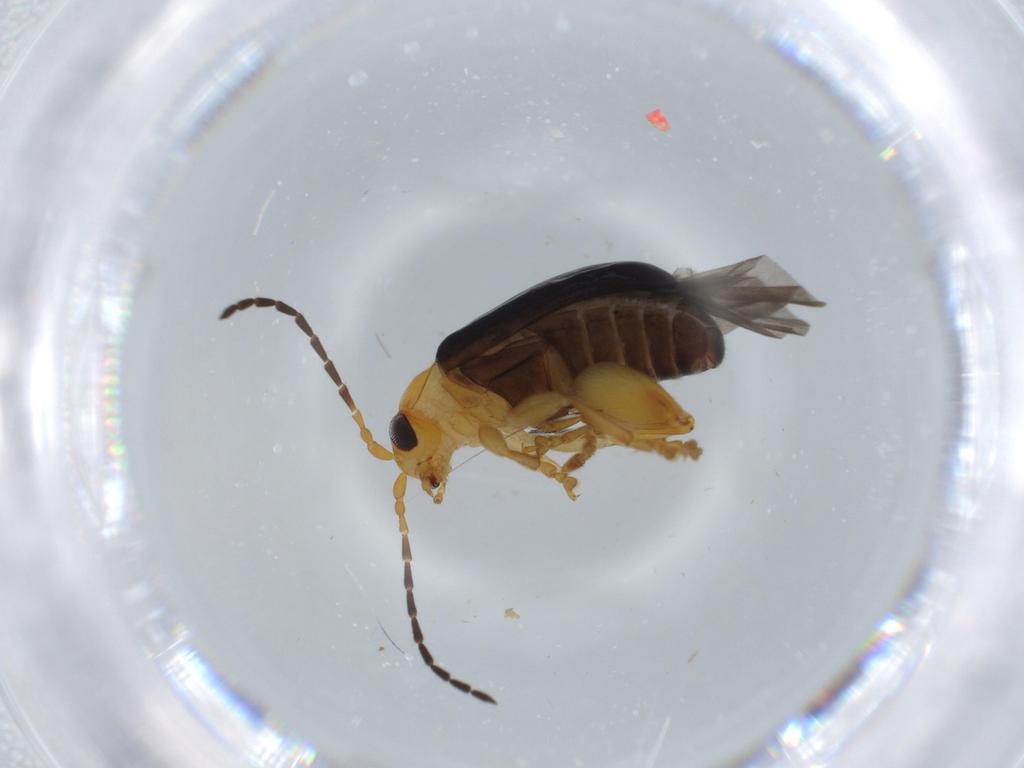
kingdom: Animalia
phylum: Arthropoda
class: Insecta
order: Coleoptera
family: Chrysomelidae
